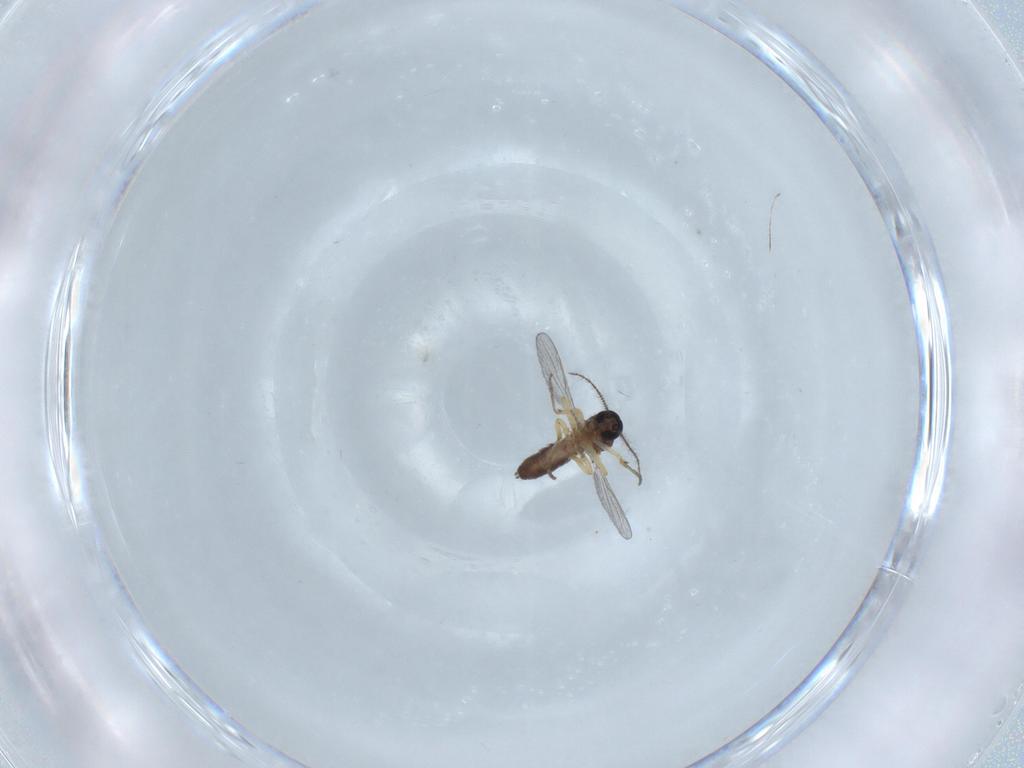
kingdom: Animalia
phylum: Arthropoda
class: Insecta
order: Diptera
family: Ceratopogonidae
